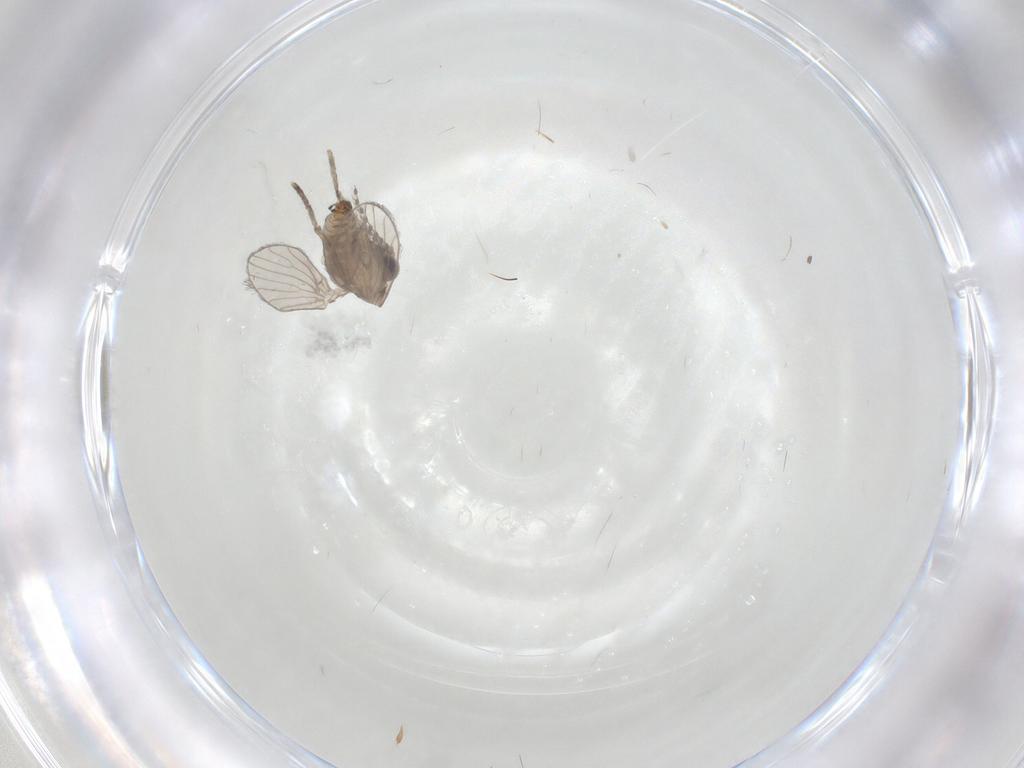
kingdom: Animalia
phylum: Arthropoda
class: Insecta
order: Diptera
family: Psychodidae
